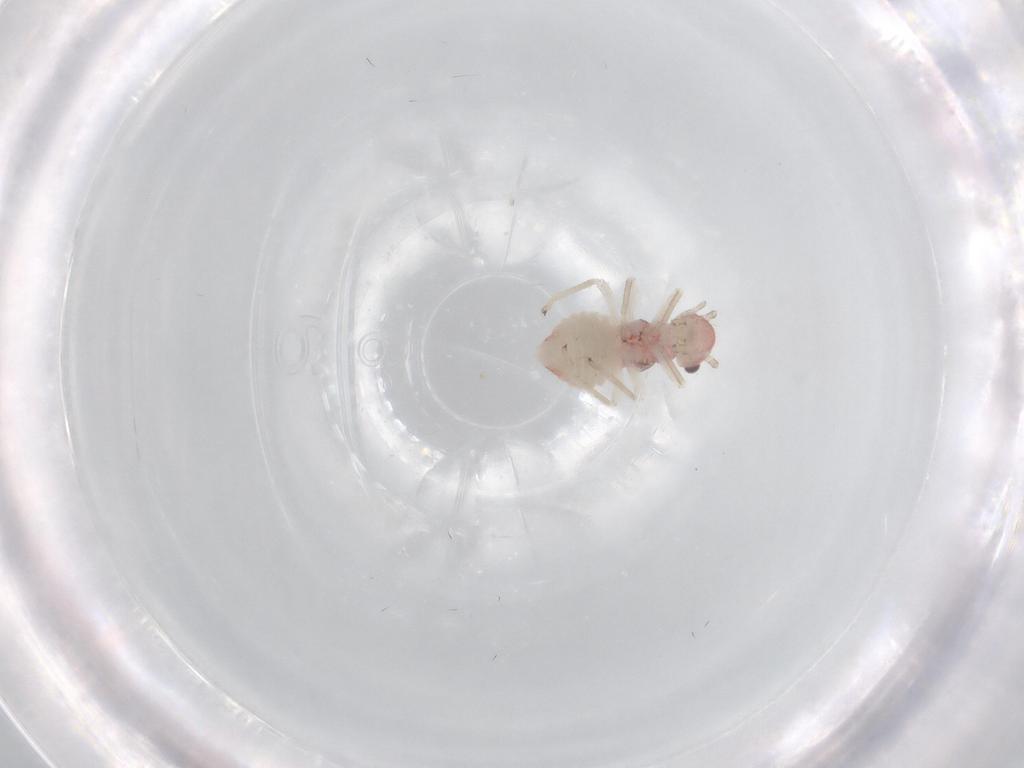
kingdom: Animalia
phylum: Arthropoda
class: Insecta
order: Psocodea
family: Amphipsocidae
